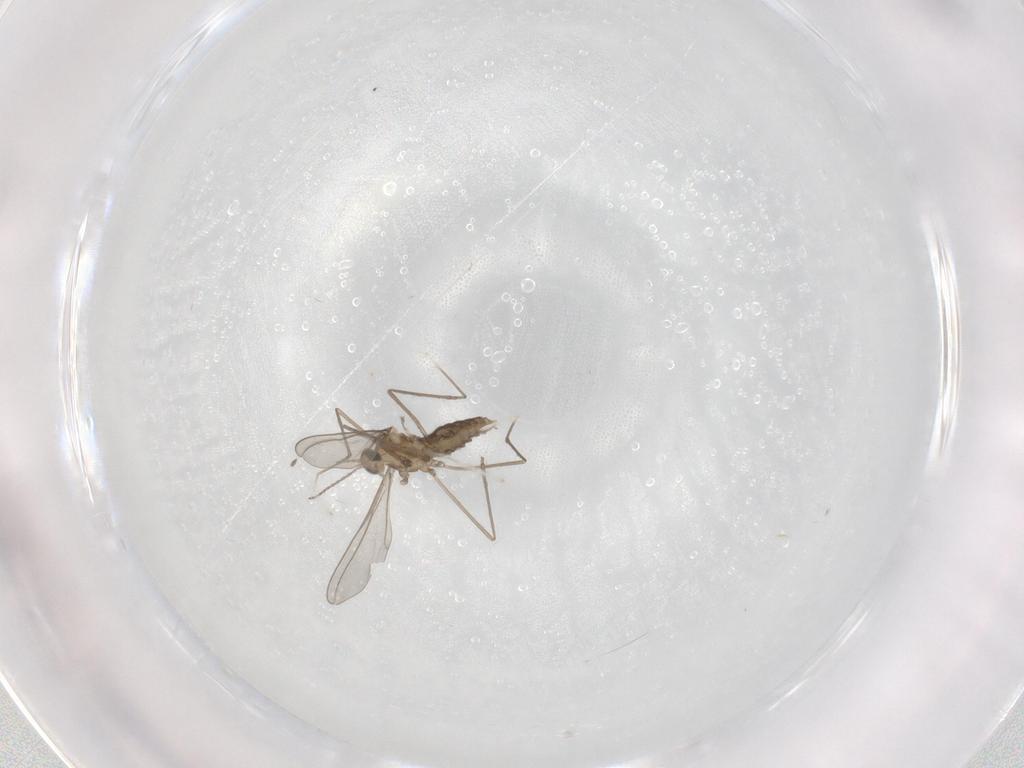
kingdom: Animalia
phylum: Arthropoda
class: Insecta
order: Diptera
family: Cecidomyiidae
